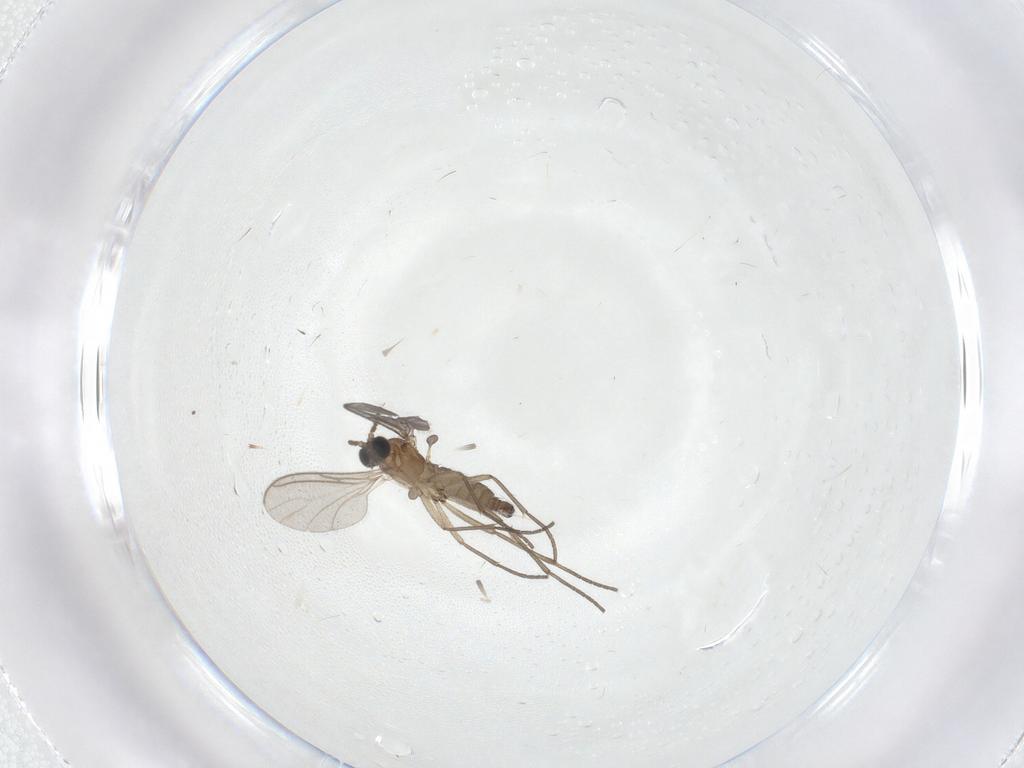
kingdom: Animalia
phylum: Arthropoda
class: Insecta
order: Diptera
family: Sciaridae
